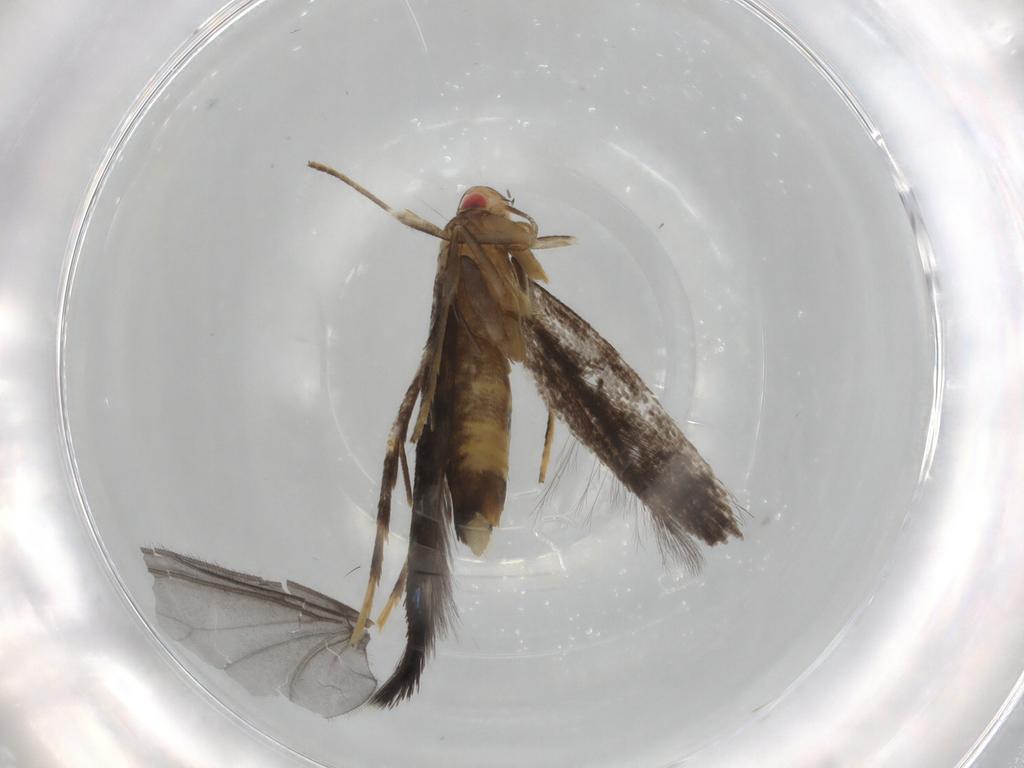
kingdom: Animalia
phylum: Arthropoda
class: Insecta
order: Lepidoptera
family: Cosmopterigidae
